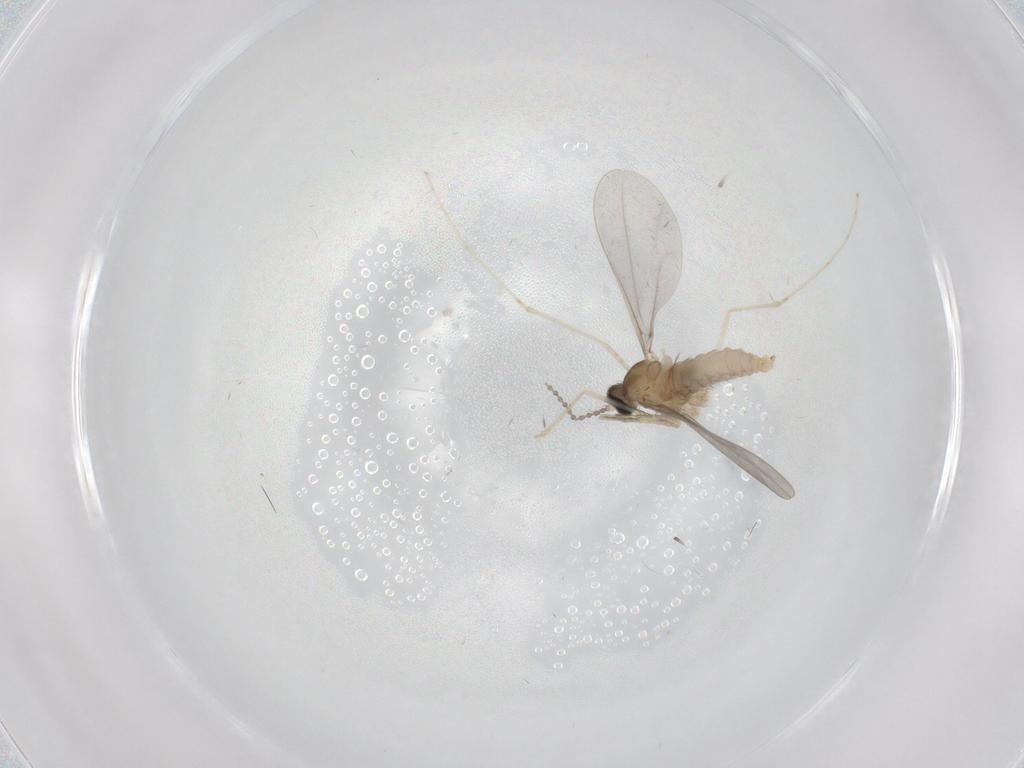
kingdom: Animalia
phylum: Arthropoda
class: Insecta
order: Diptera
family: Cecidomyiidae
